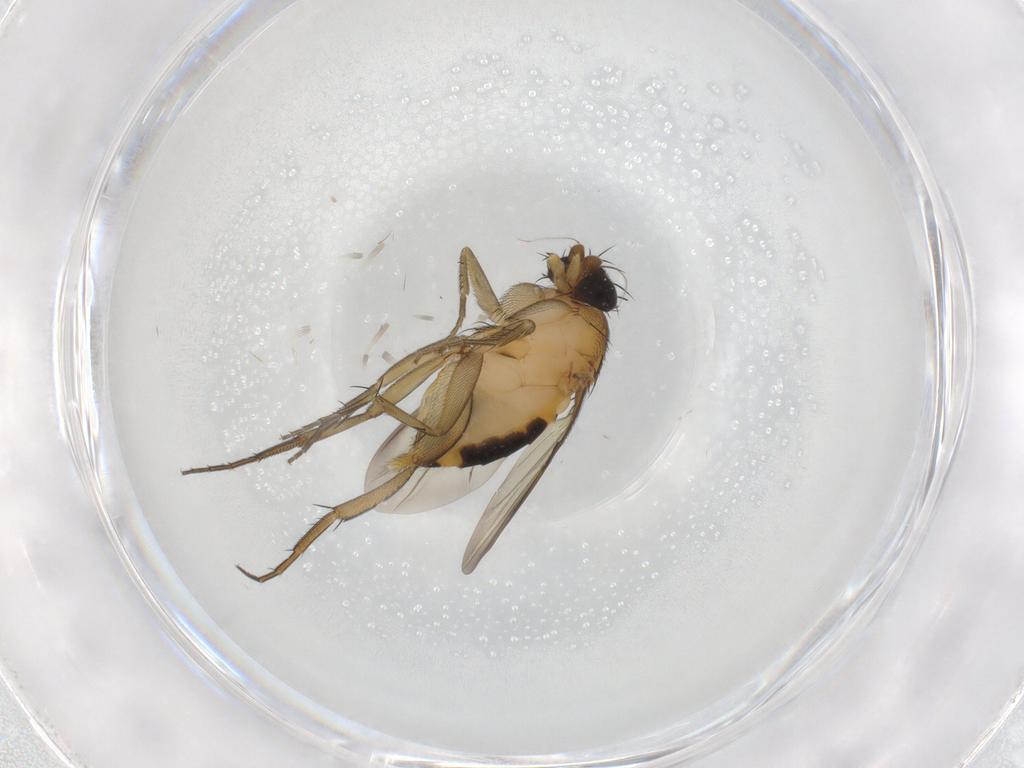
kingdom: Animalia
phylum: Arthropoda
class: Insecta
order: Diptera
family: Phoridae
